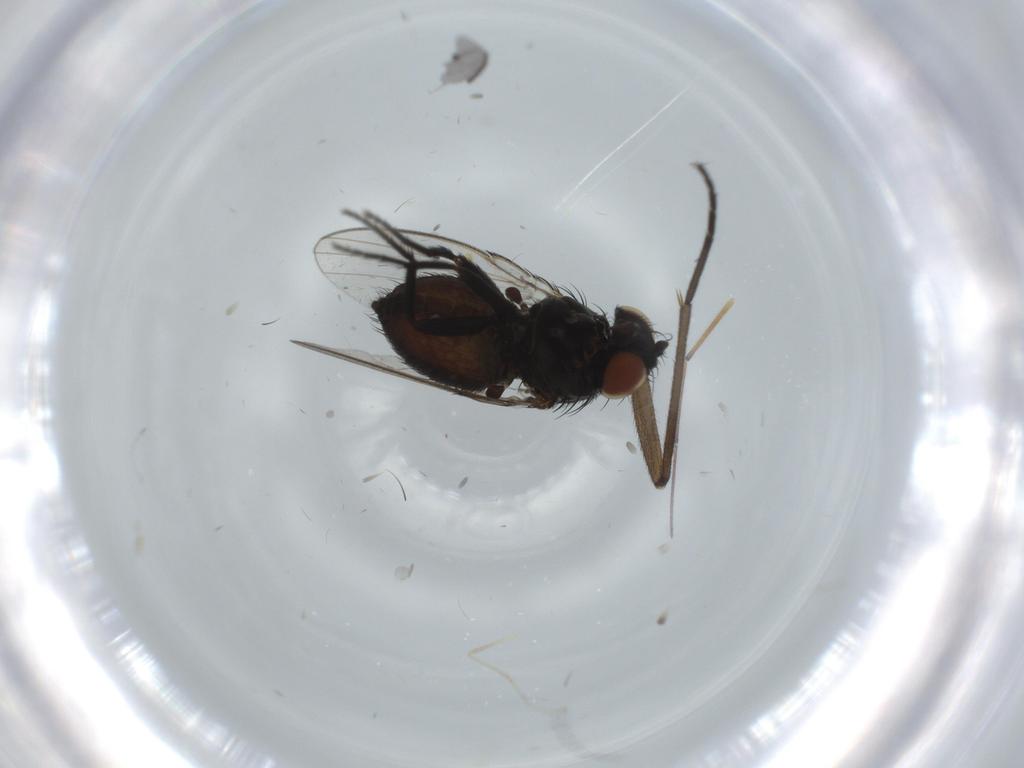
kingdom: Animalia
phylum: Arthropoda
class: Insecta
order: Diptera
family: Milichiidae
